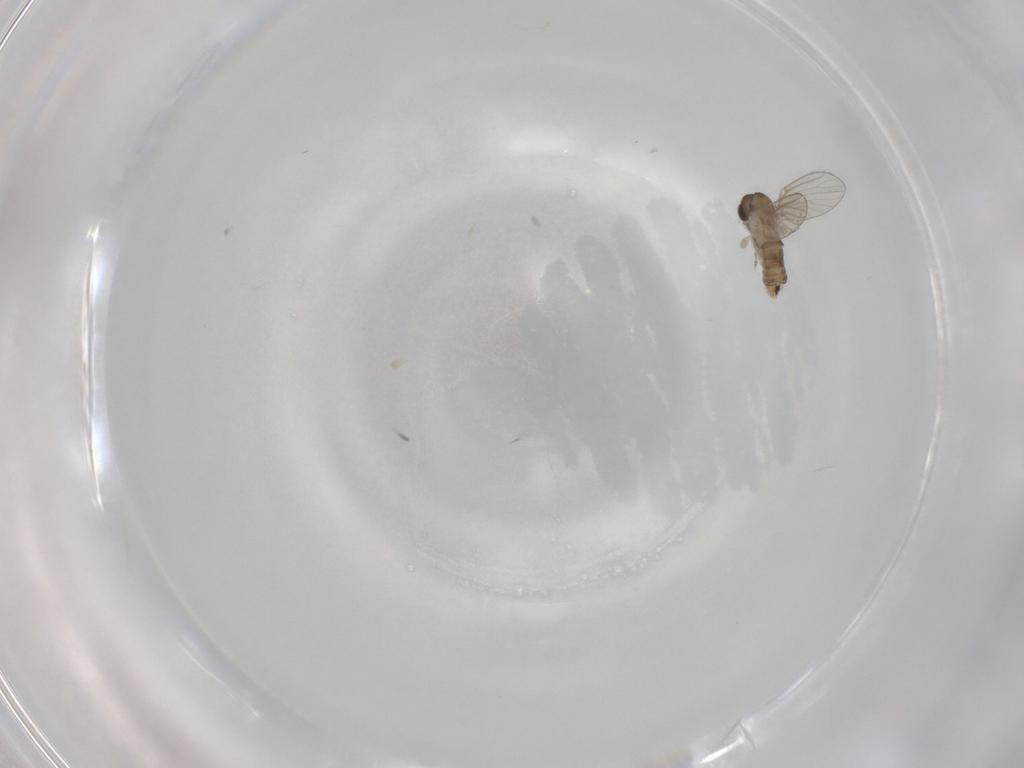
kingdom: Animalia
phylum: Arthropoda
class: Insecta
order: Diptera
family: Psychodidae
